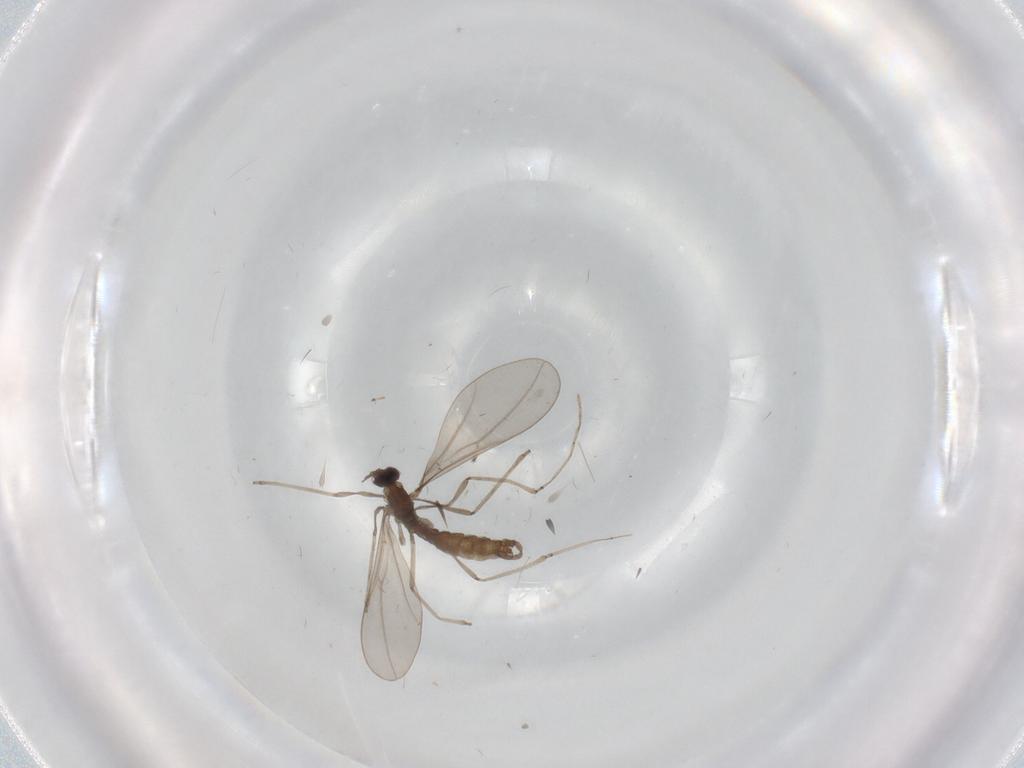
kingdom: Animalia
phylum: Arthropoda
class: Insecta
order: Diptera
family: Cecidomyiidae
